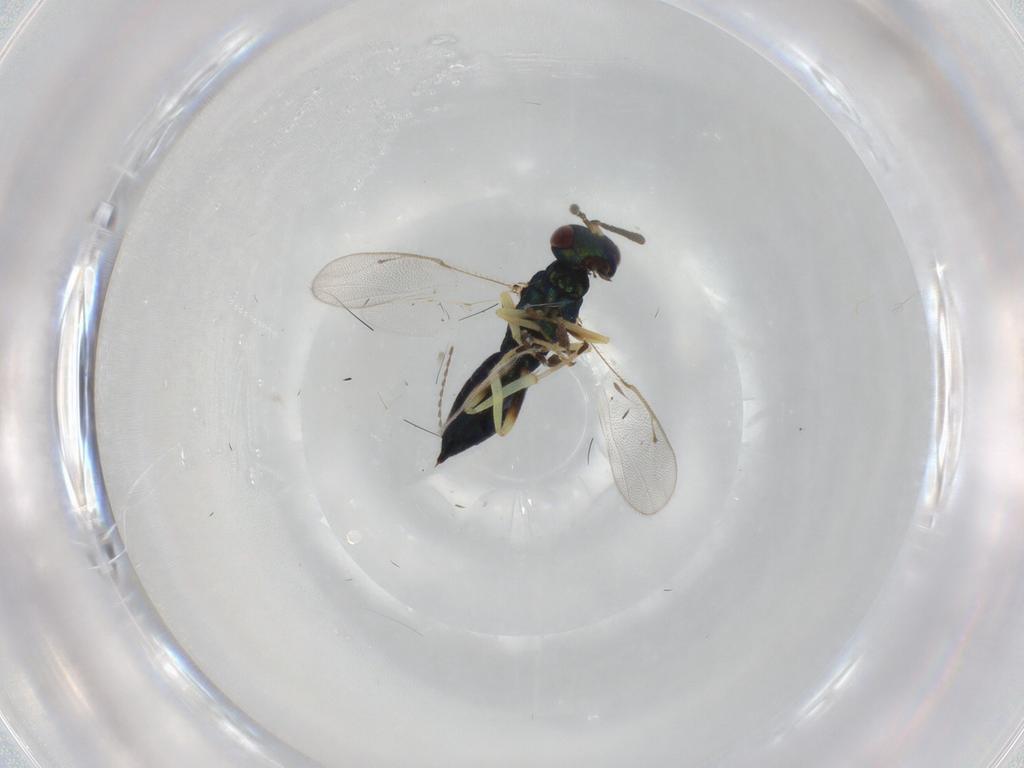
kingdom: Animalia
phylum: Arthropoda
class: Insecta
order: Hymenoptera
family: Pteromalidae
